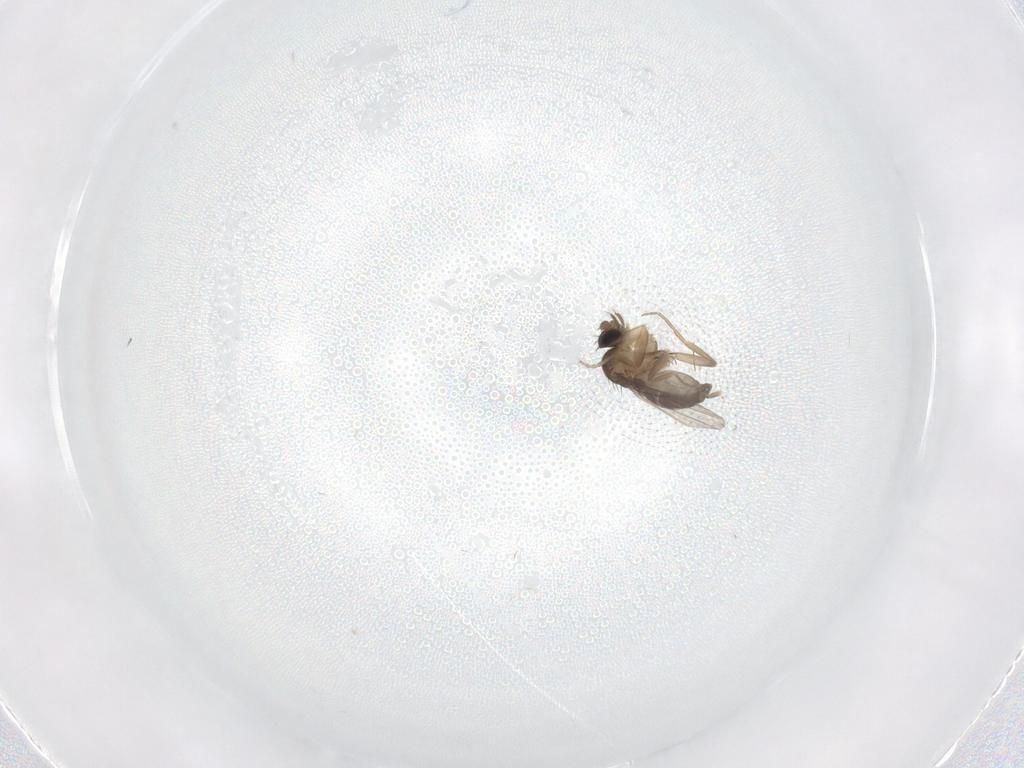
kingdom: Animalia
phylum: Arthropoda
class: Insecta
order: Diptera
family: Phoridae
